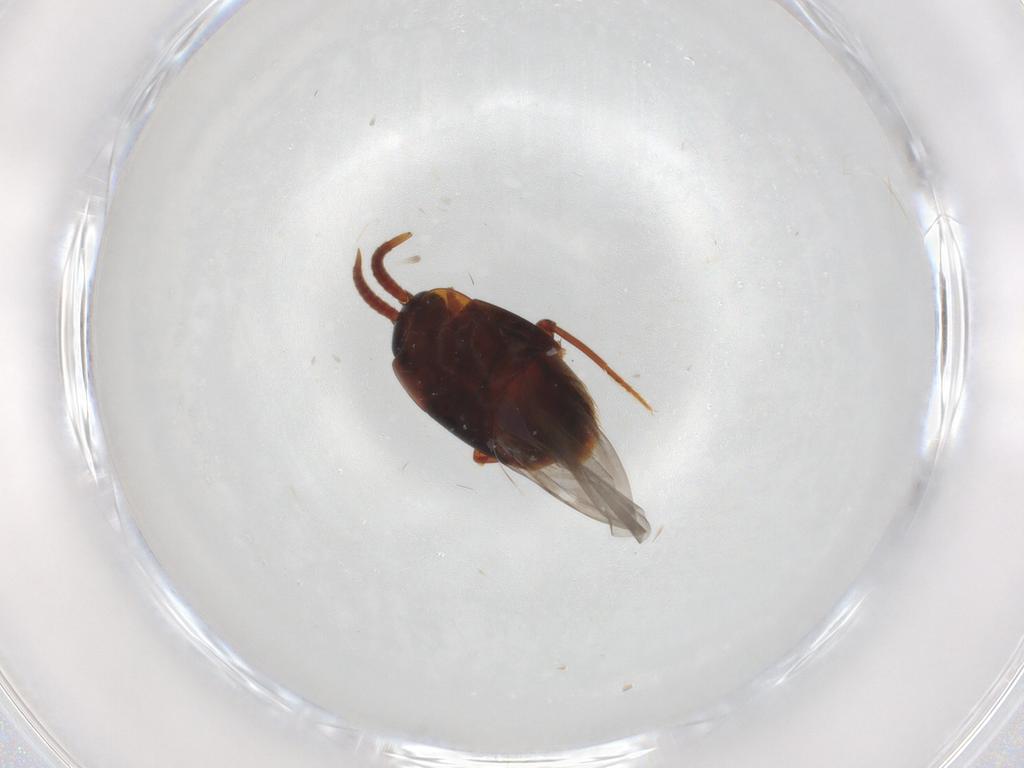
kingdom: Animalia
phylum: Arthropoda
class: Insecta
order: Coleoptera
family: Staphylinidae
